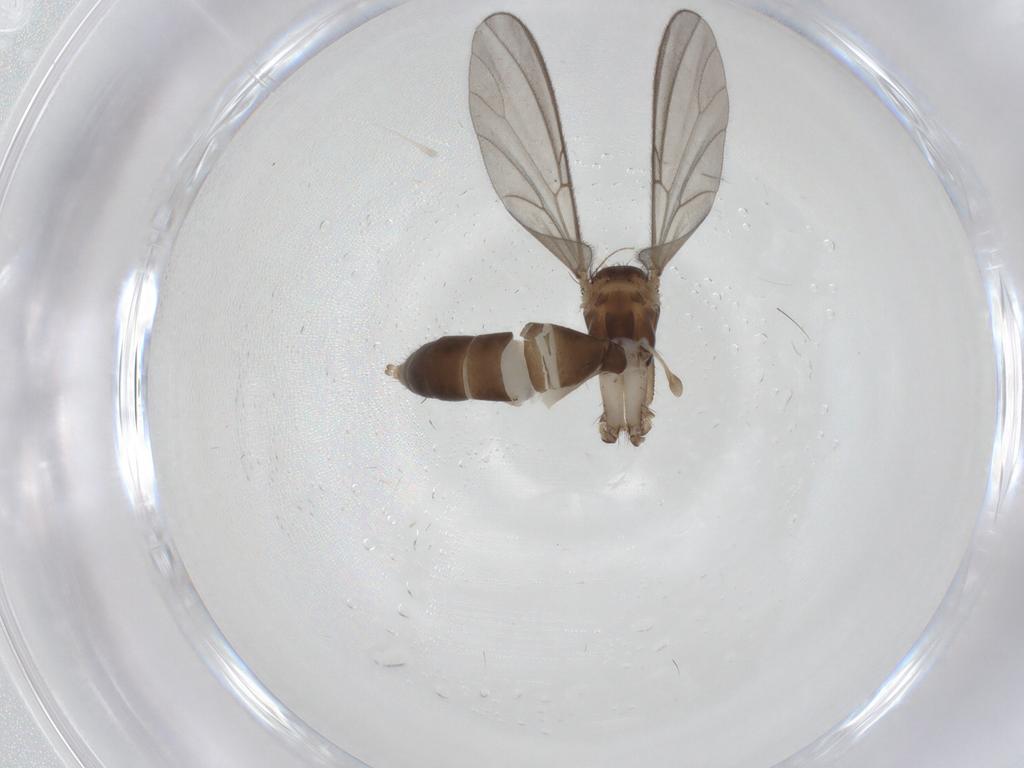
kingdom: Animalia
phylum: Arthropoda
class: Insecta
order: Diptera
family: Mycetophilidae
